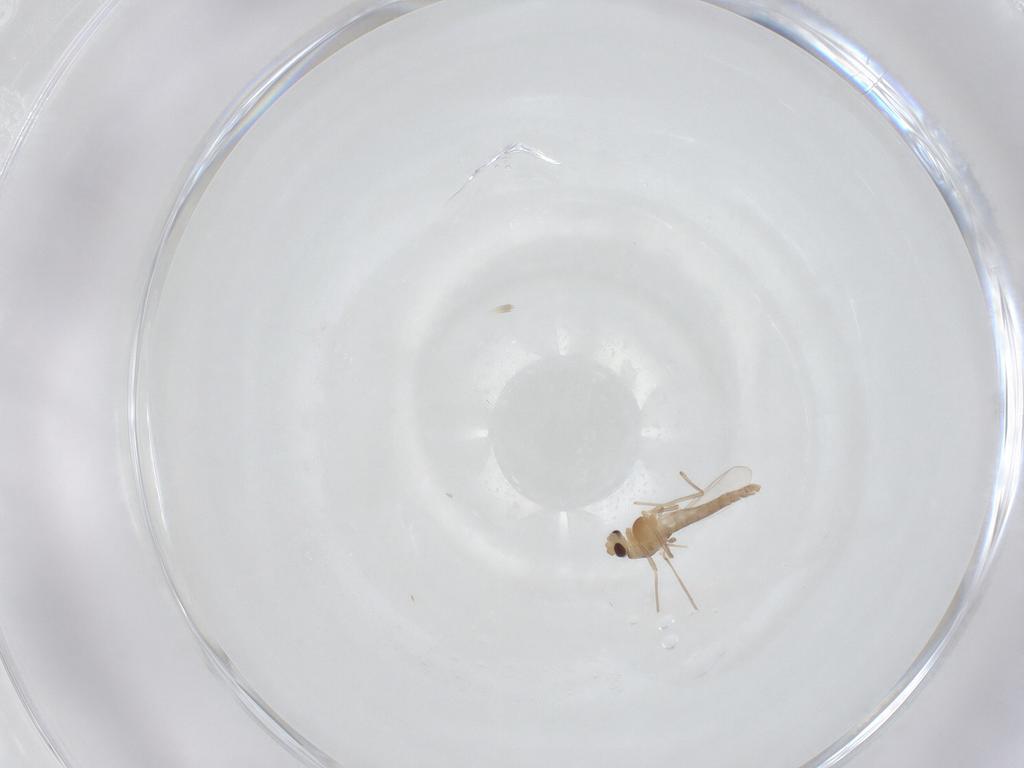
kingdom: Animalia
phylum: Arthropoda
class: Insecta
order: Diptera
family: Chironomidae
